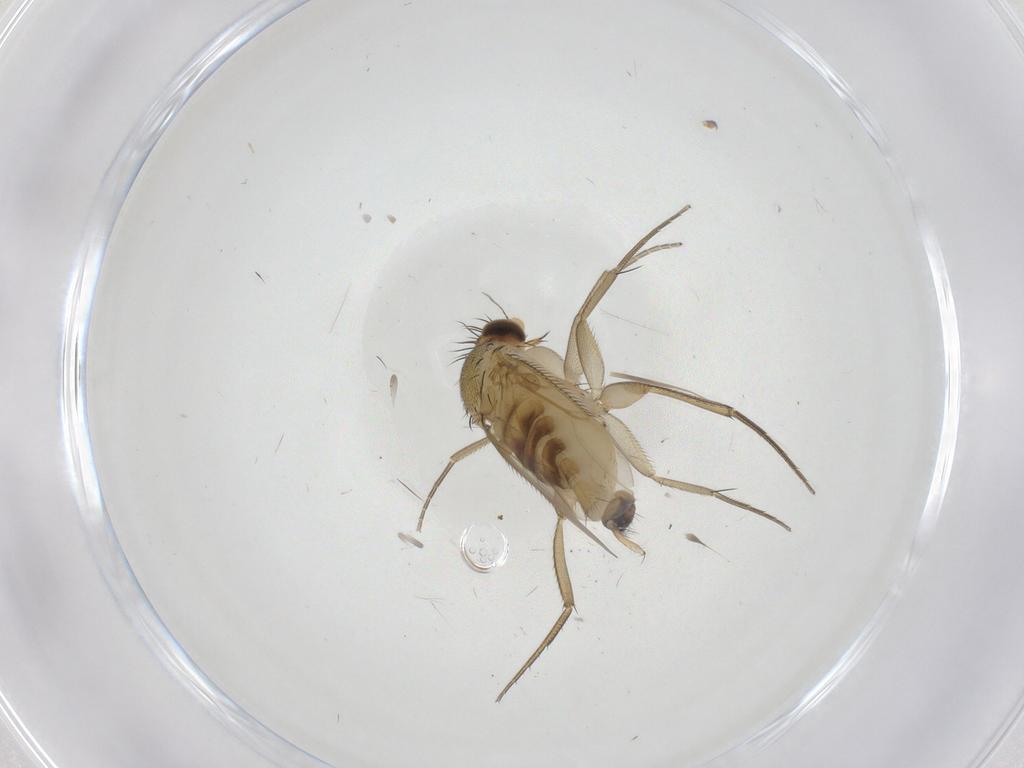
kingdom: Animalia
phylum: Arthropoda
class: Insecta
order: Diptera
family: Phoridae
